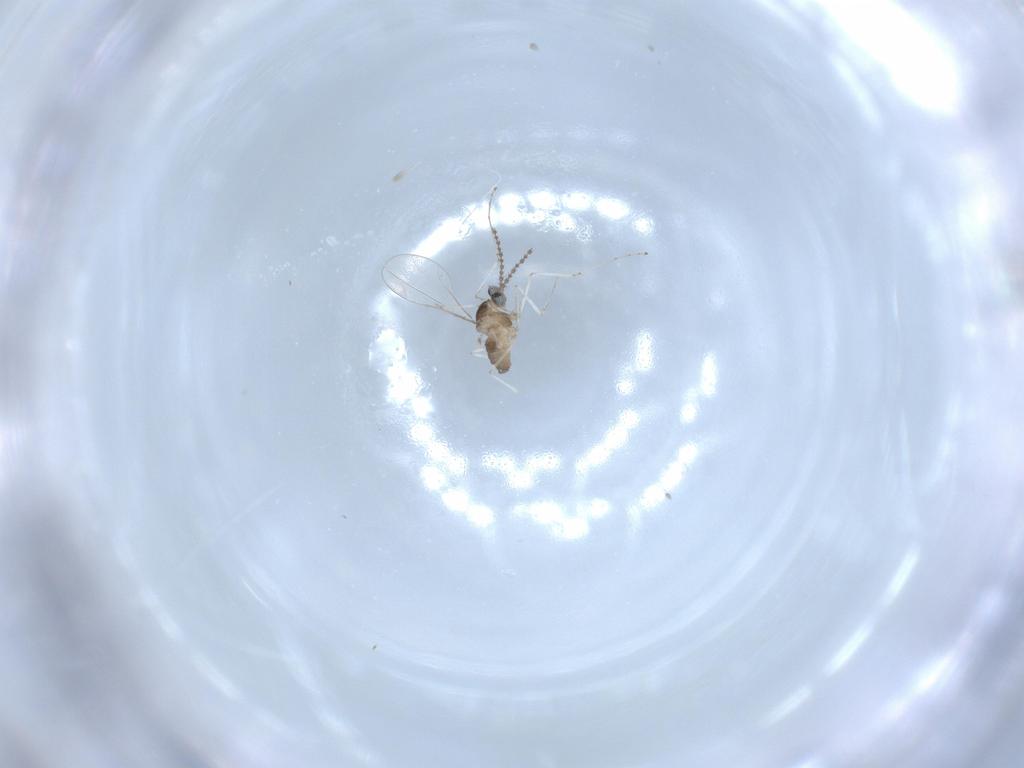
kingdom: Animalia
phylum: Arthropoda
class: Insecta
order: Diptera
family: Cecidomyiidae
